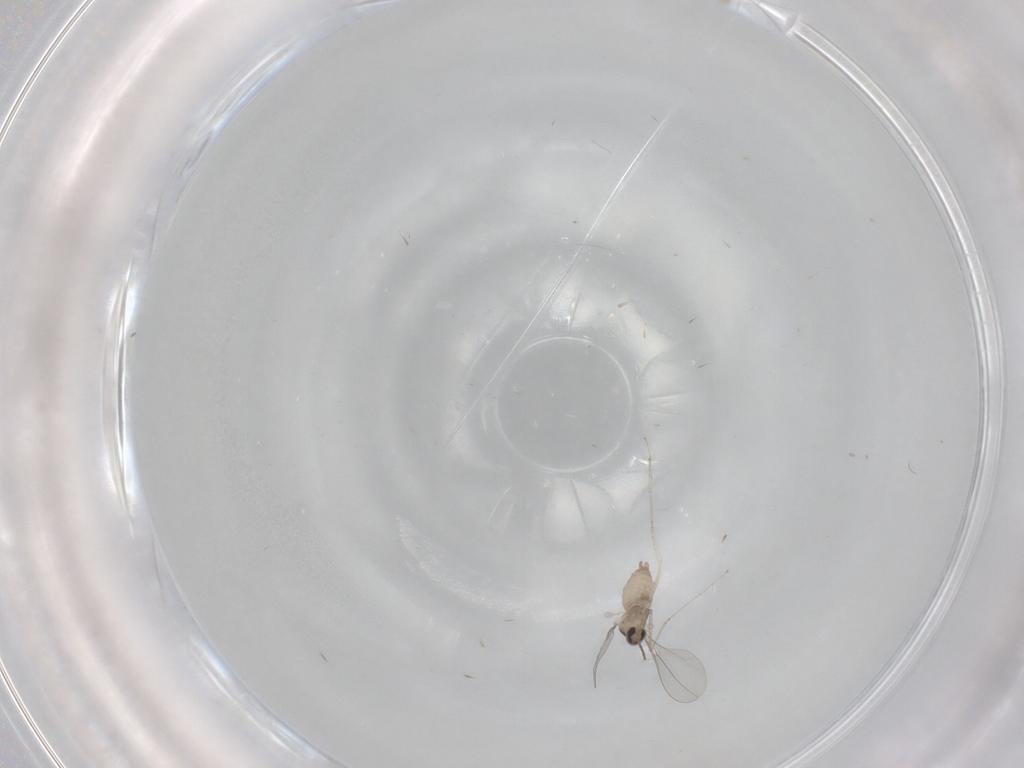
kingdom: Animalia
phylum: Arthropoda
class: Insecta
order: Diptera
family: Cecidomyiidae
